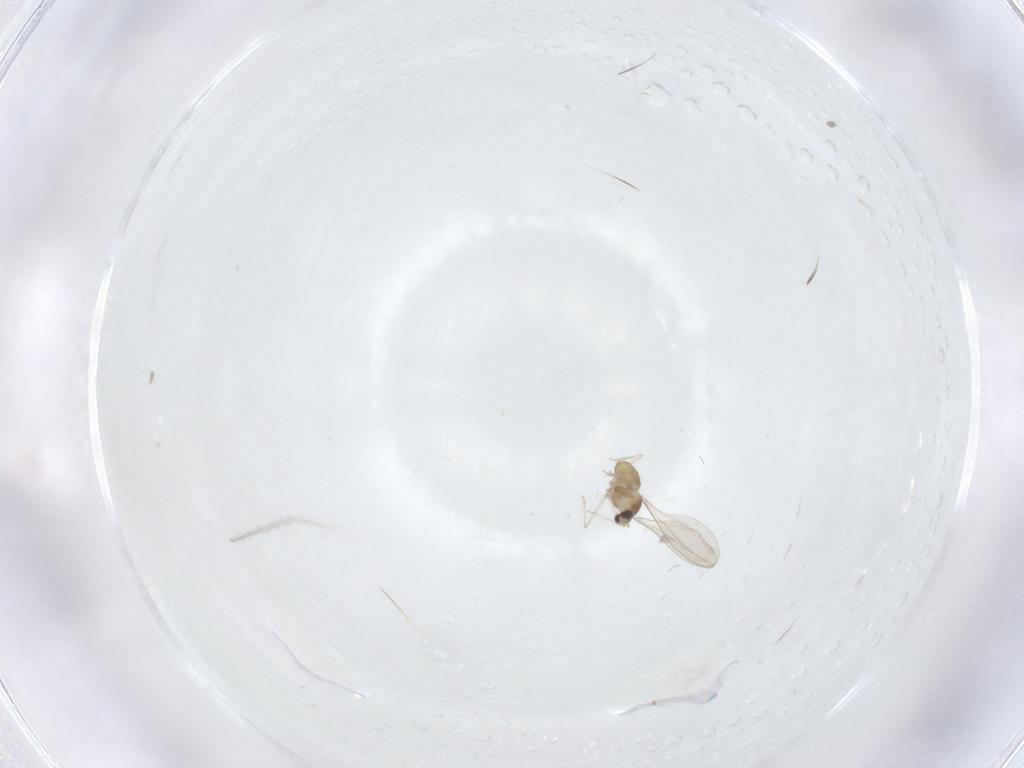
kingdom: Animalia
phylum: Arthropoda
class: Insecta
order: Diptera
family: Cecidomyiidae
